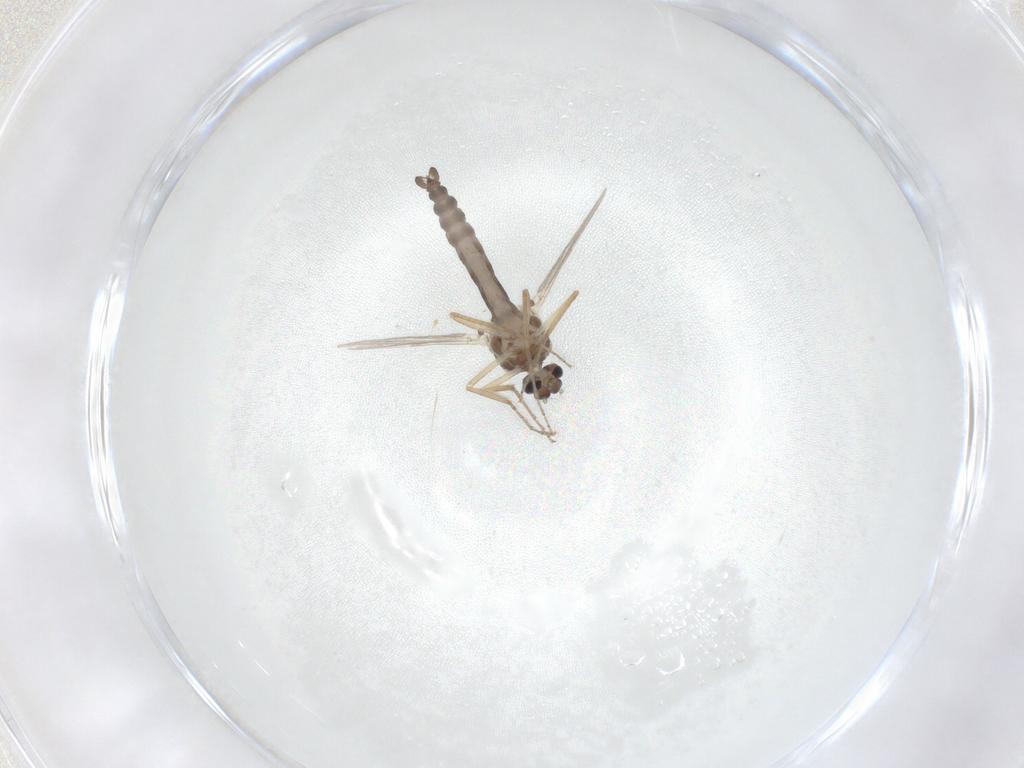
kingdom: Animalia
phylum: Arthropoda
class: Insecta
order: Diptera
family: Ceratopogonidae
